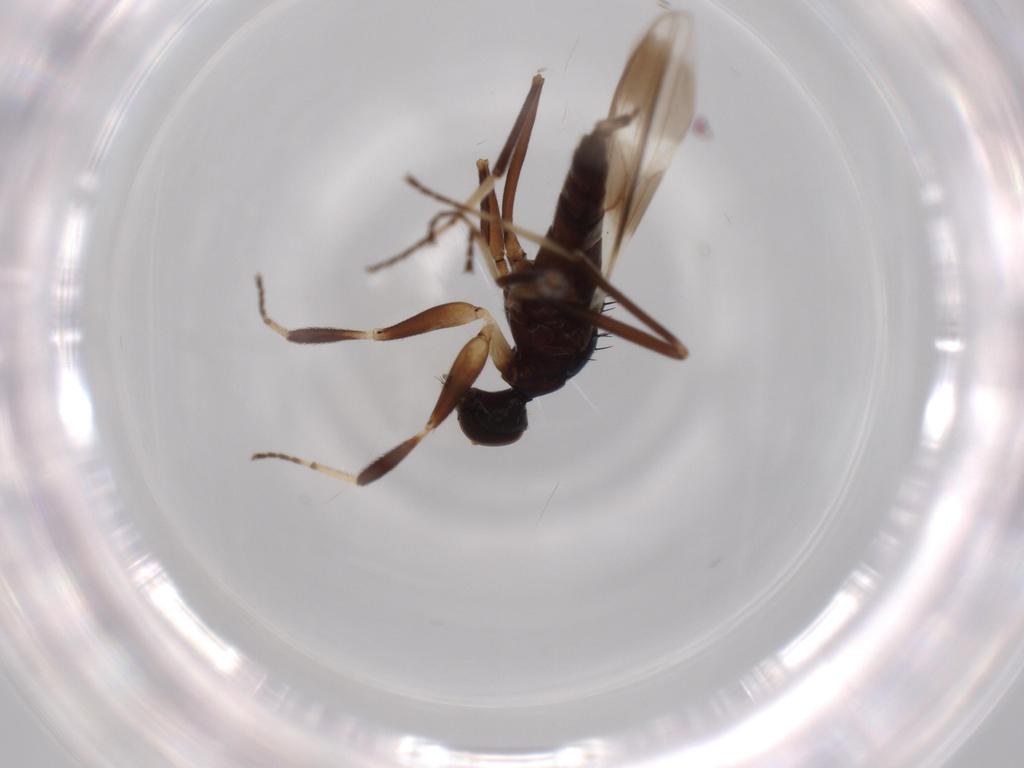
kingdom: Animalia
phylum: Arthropoda
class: Insecta
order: Diptera
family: Hybotidae
